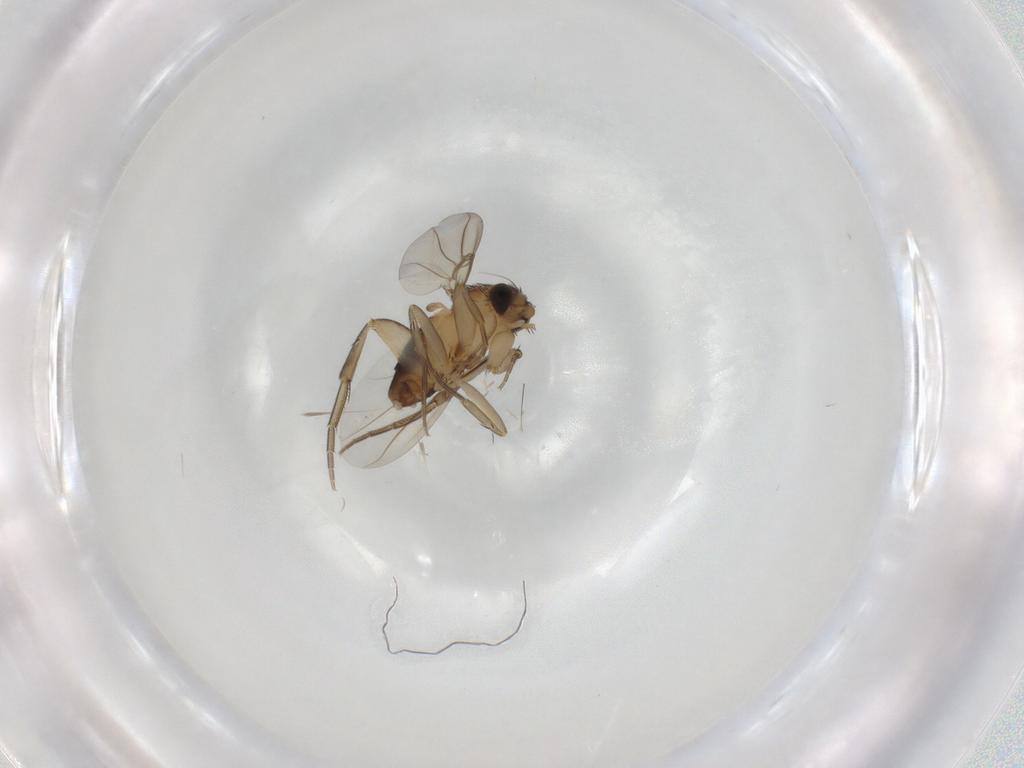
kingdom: Animalia
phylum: Arthropoda
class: Insecta
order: Diptera
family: Phoridae
